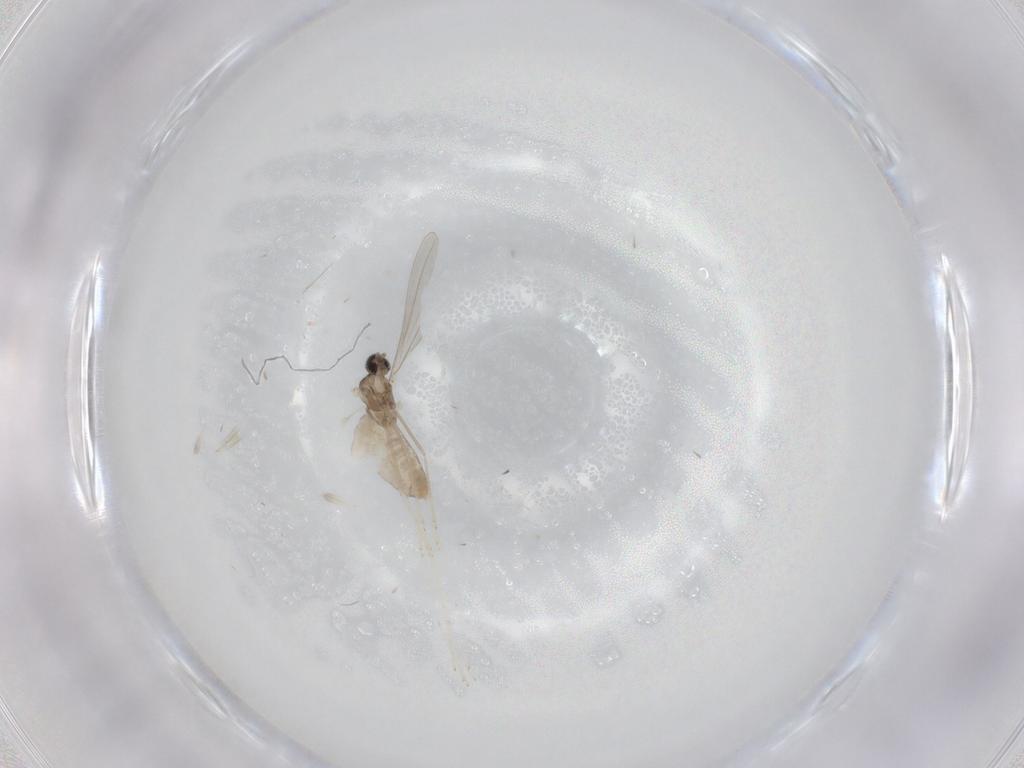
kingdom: Animalia
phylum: Arthropoda
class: Insecta
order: Diptera
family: Cecidomyiidae
